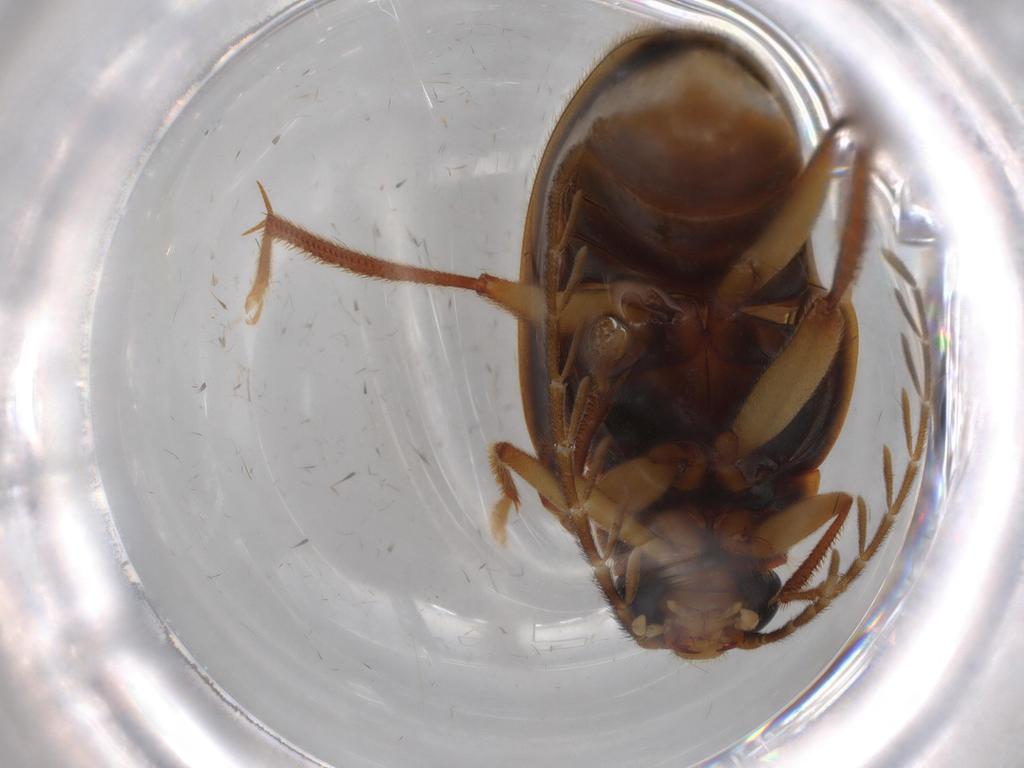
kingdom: Animalia
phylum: Arthropoda
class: Insecta
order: Coleoptera
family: Ptilodactylidae
